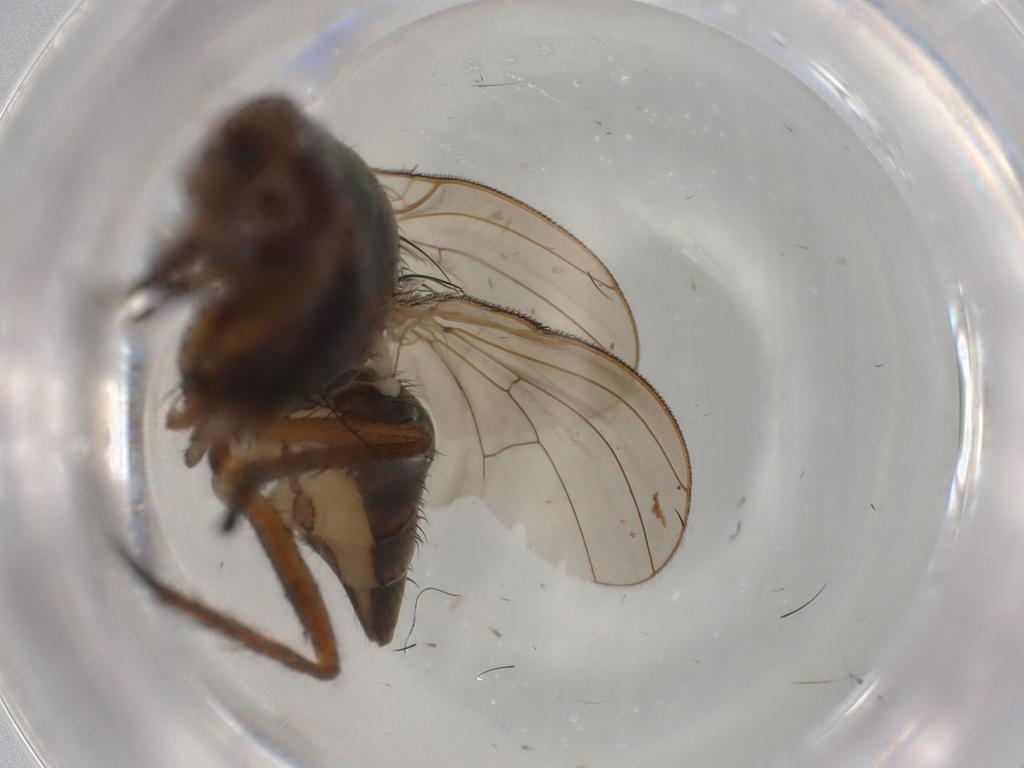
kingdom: Animalia
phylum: Arthropoda
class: Insecta
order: Diptera
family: Anthomyiidae
